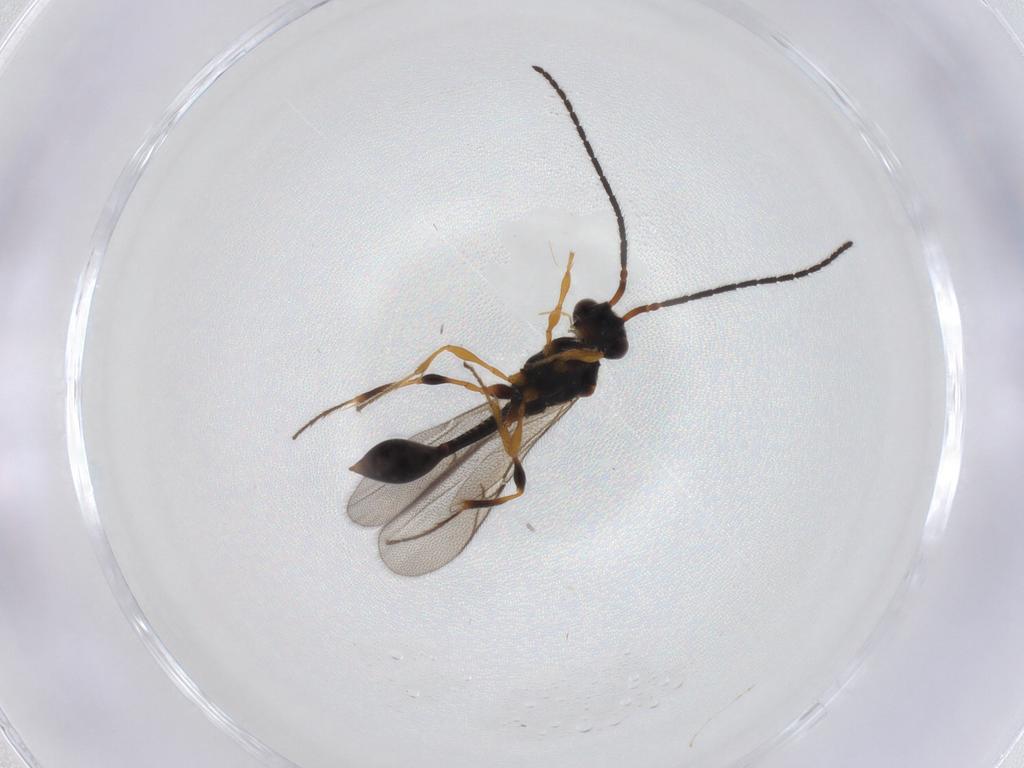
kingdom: Animalia
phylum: Arthropoda
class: Insecta
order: Hymenoptera
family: Diapriidae
